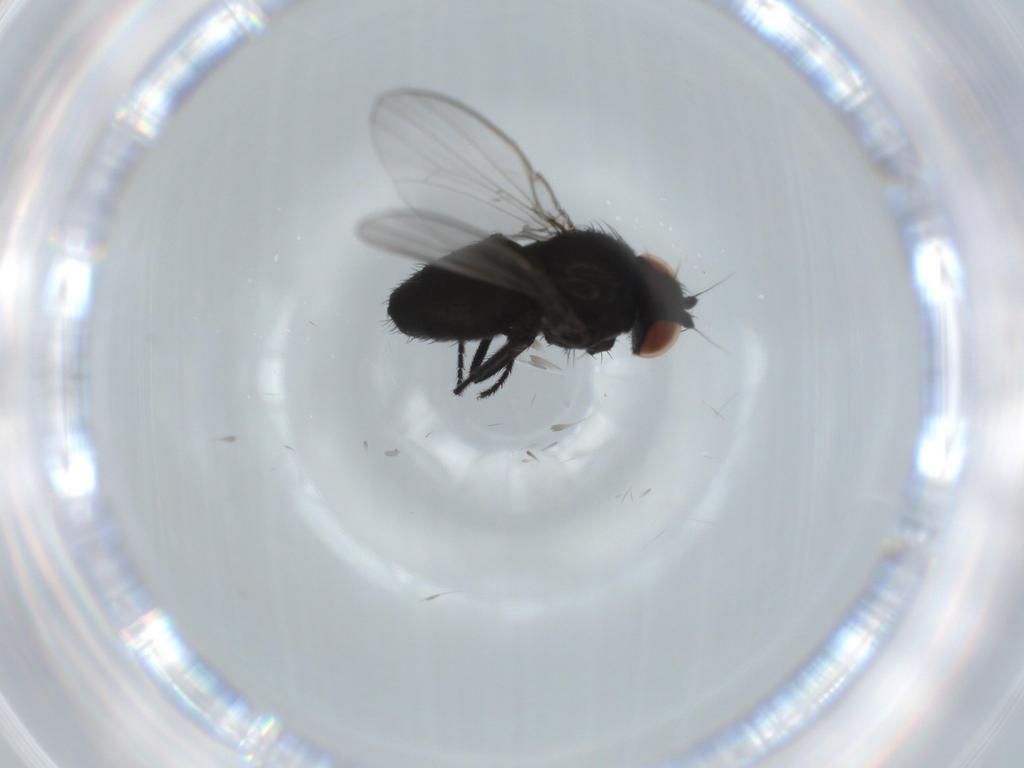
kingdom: Animalia
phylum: Arthropoda
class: Insecta
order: Diptera
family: Milichiidae
